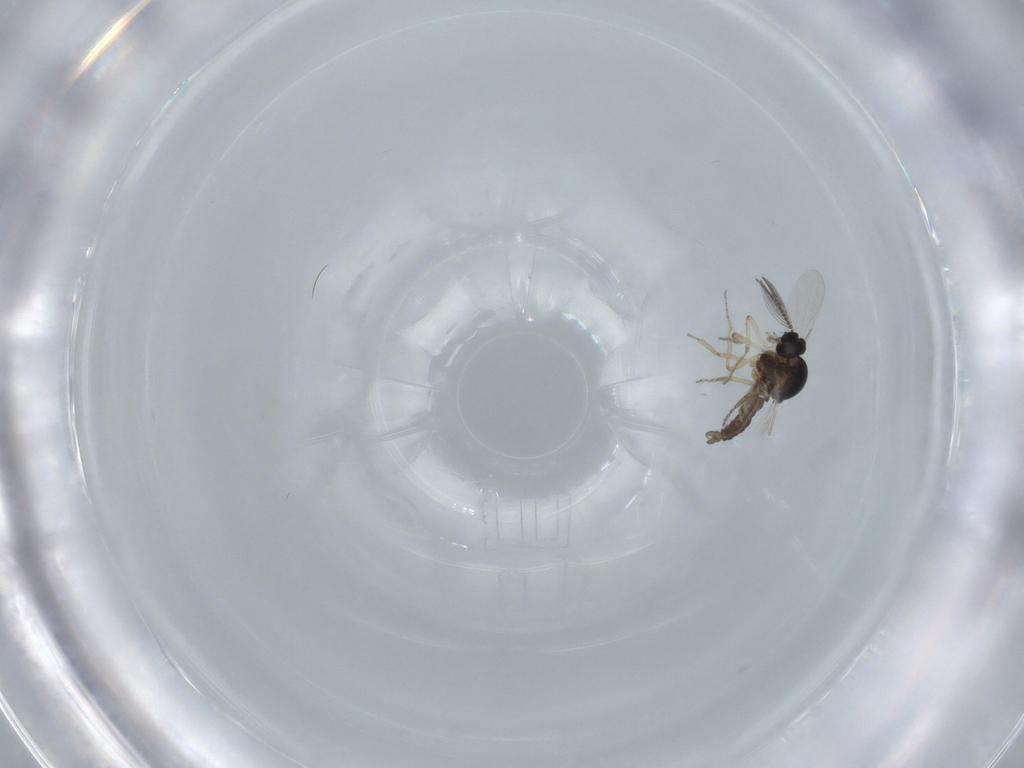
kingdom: Animalia
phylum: Arthropoda
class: Insecta
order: Diptera
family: Ceratopogonidae
